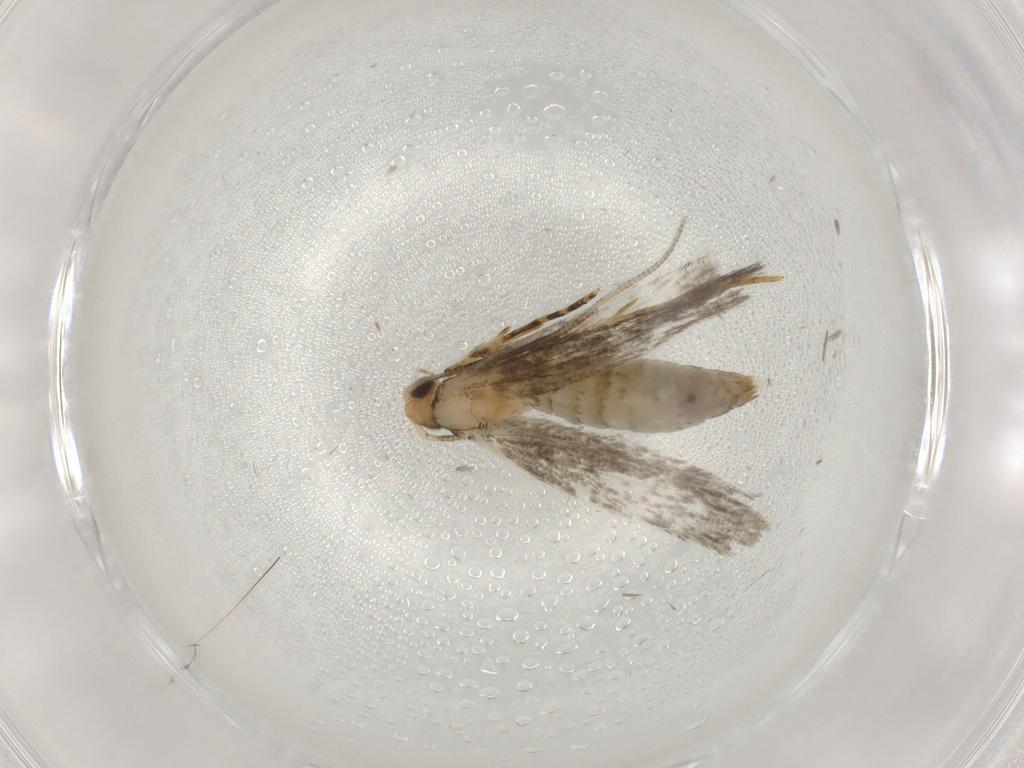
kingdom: Animalia
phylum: Arthropoda
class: Insecta
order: Lepidoptera
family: Tineidae
